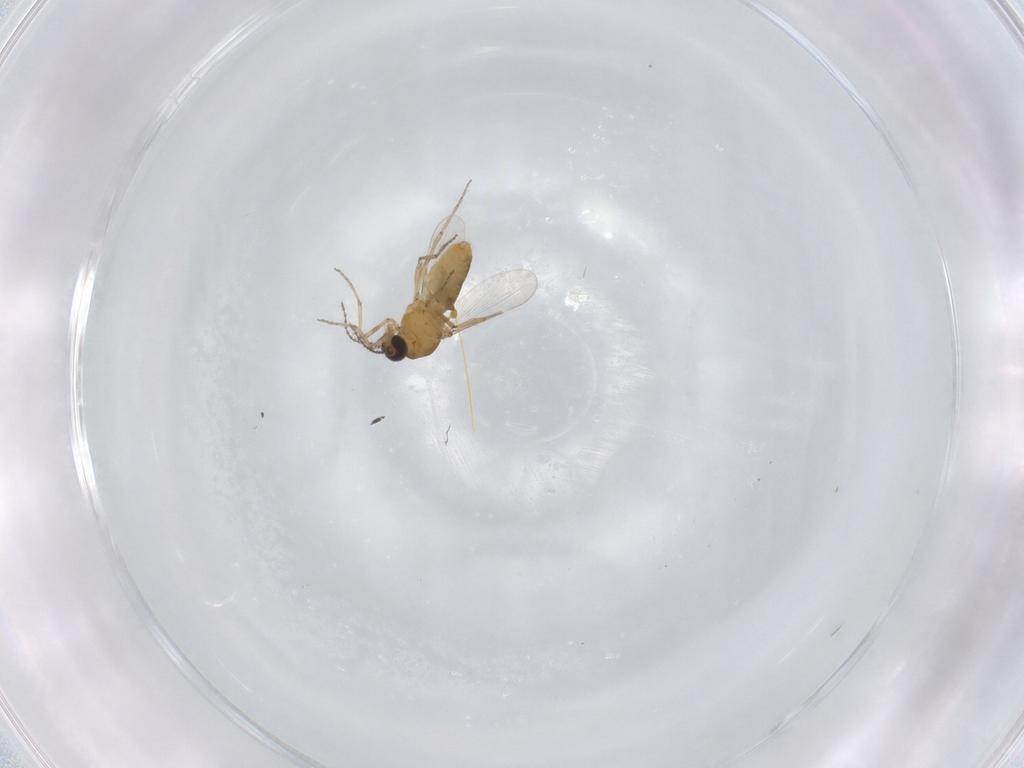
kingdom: Animalia
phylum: Arthropoda
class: Insecta
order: Diptera
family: Ceratopogonidae
